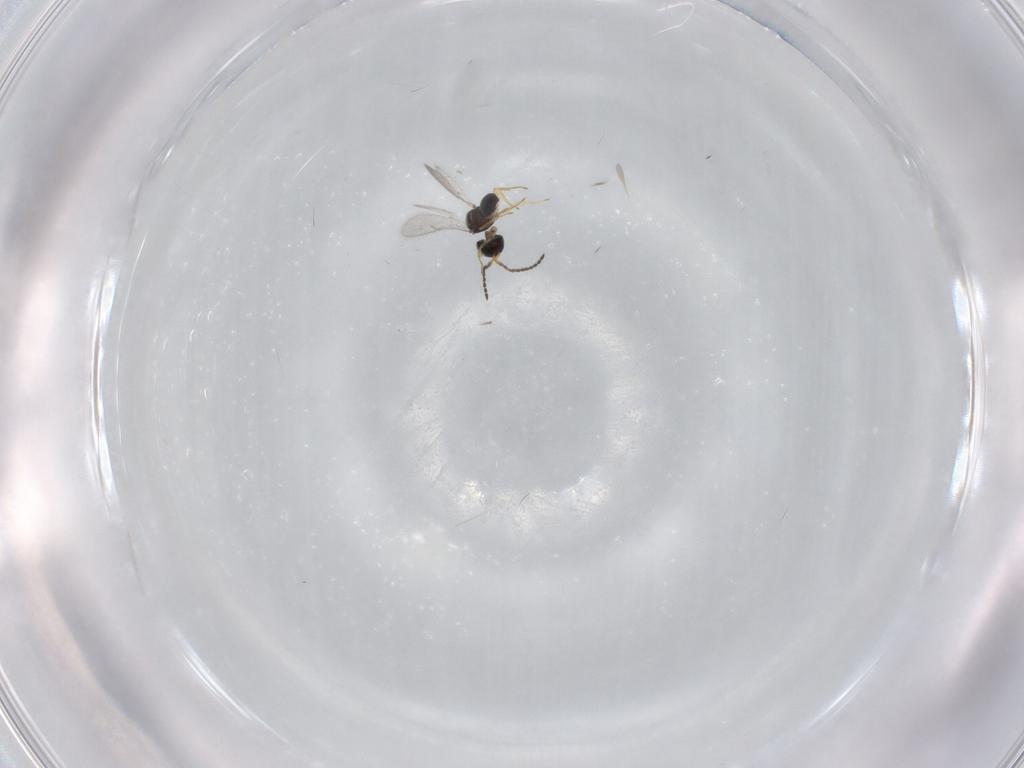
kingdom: Animalia
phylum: Arthropoda
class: Insecta
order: Hymenoptera
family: Scelionidae
